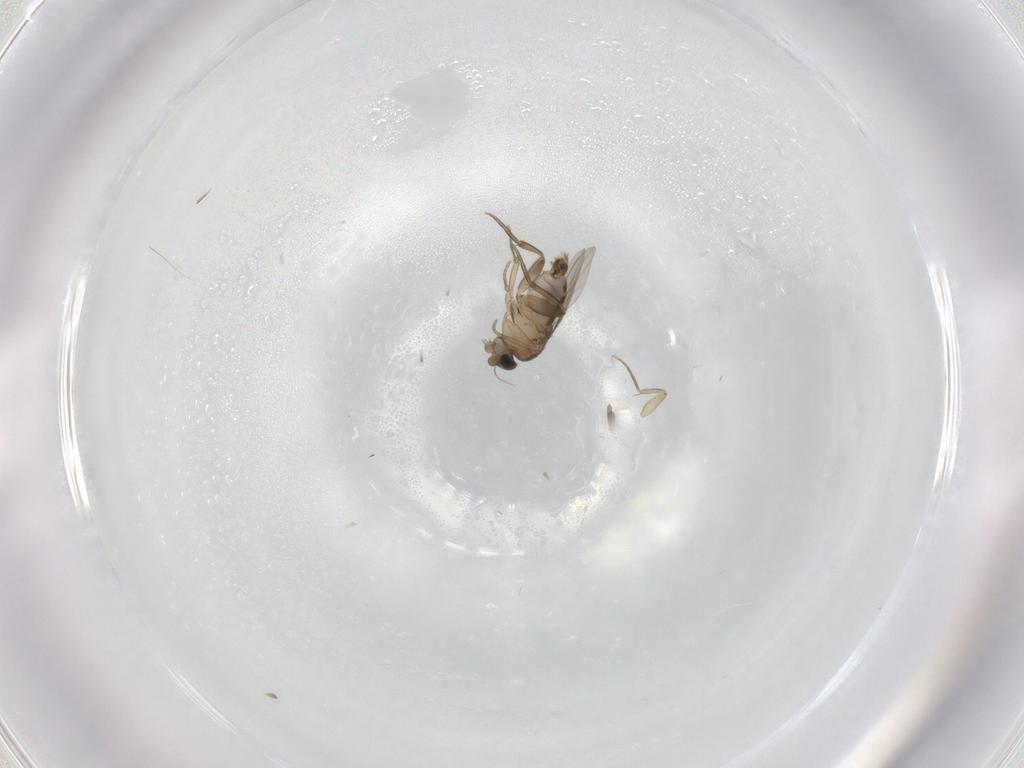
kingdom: Animalia
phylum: Arthropoda
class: Insecta
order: Diptera
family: Phoridae
